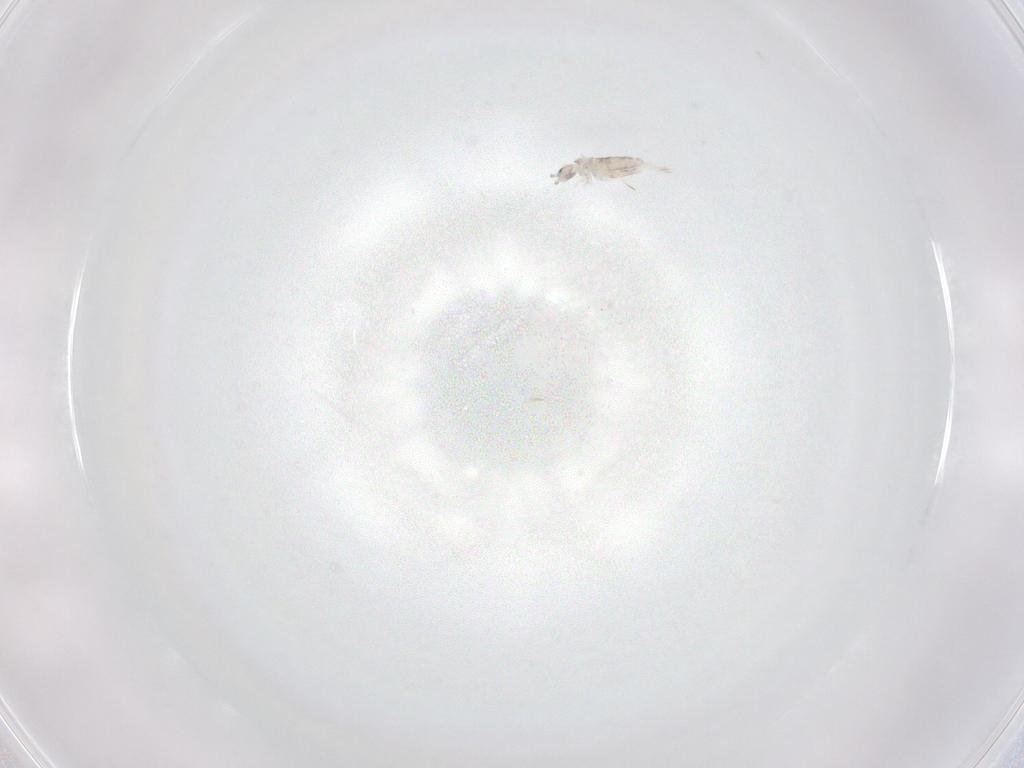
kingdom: Animalia
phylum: Arthropoda
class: Collembola
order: Entomobryomorpha
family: Entomobryidae
